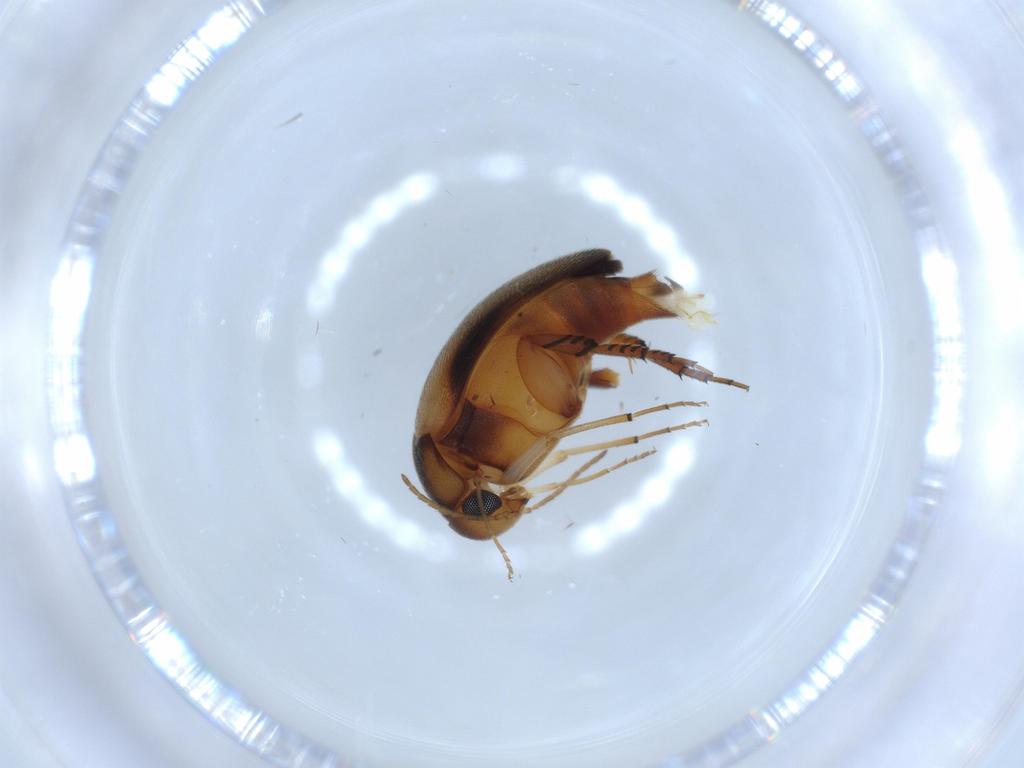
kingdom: Animalia
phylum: Arthropoda
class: Insecta
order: Coleoptera
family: Mordellidae
